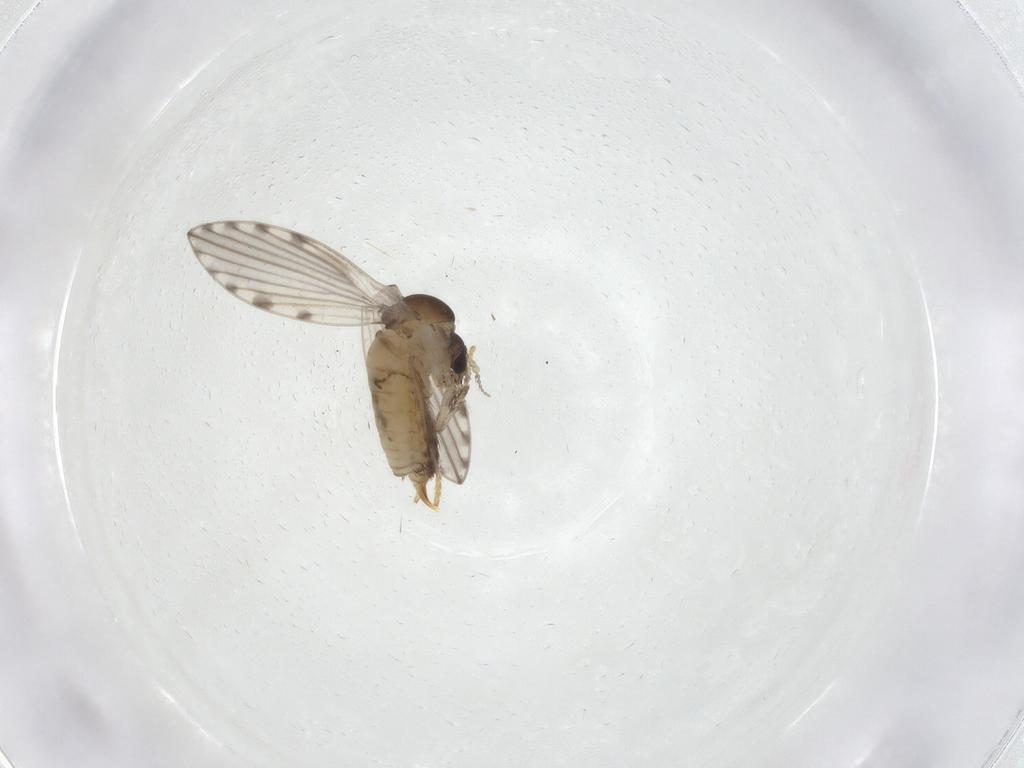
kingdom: Animalia
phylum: Arthropoda
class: Insecta
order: Diptera
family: Psychodidae
